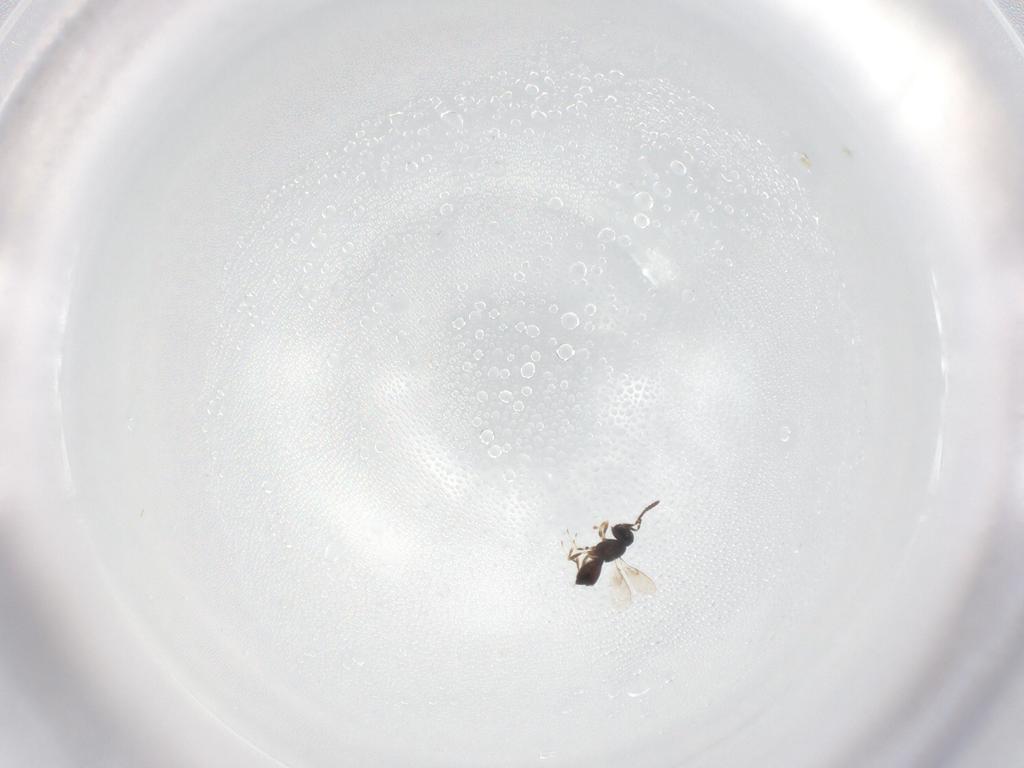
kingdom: Animalia
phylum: Arthropoda
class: Insecta
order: Hymenoptera
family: Scelionidae
